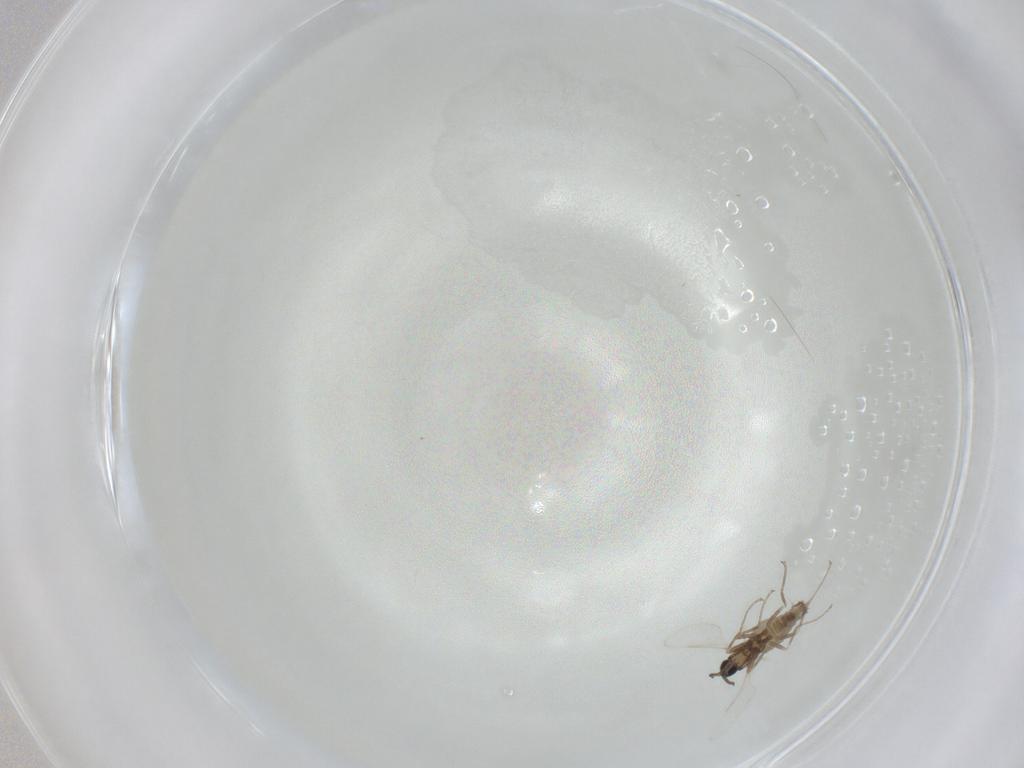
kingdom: Animalia
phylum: Arthropoda
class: Insecta
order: Diptera
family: Cecidomyiidae
